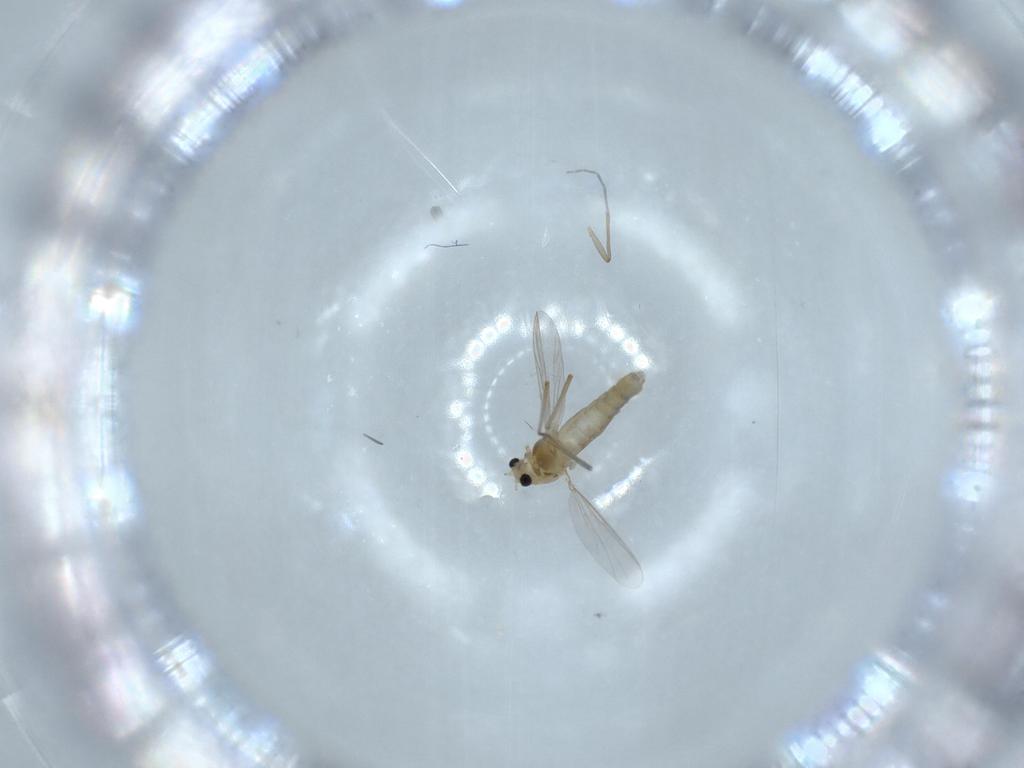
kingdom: Animalia
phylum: Arthropoda
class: Insecta
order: Diptera
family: Chironomidae
